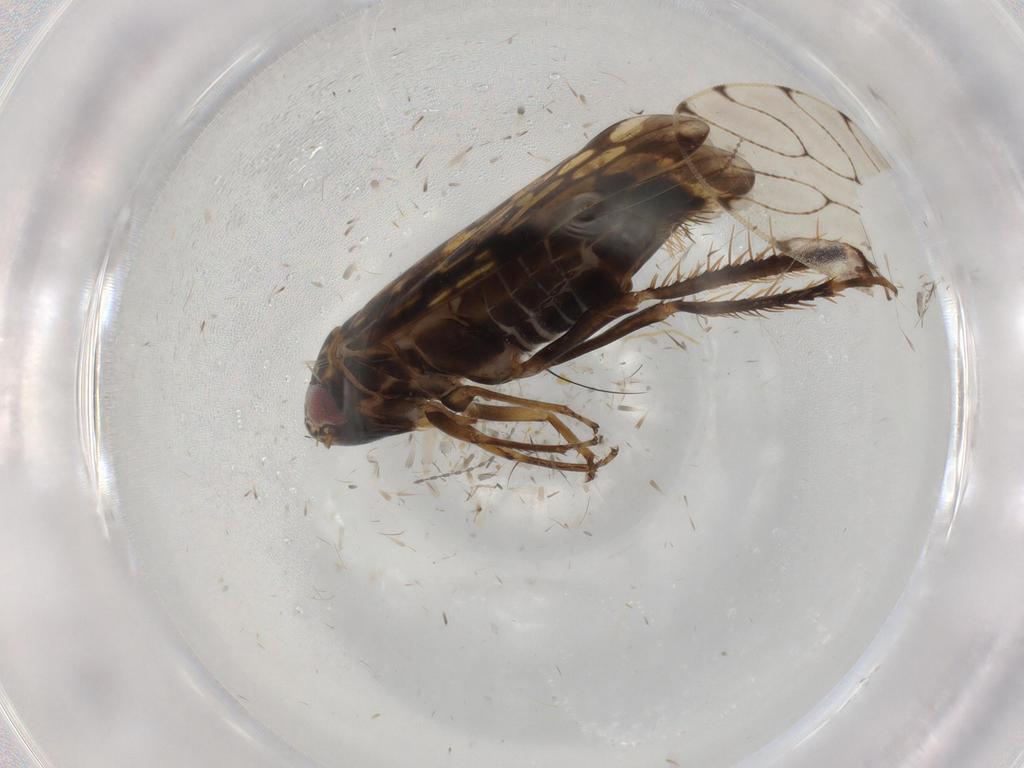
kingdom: Animalia
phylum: Arthropoda
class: Insecta
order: Hemiptera
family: Cicadellidae
